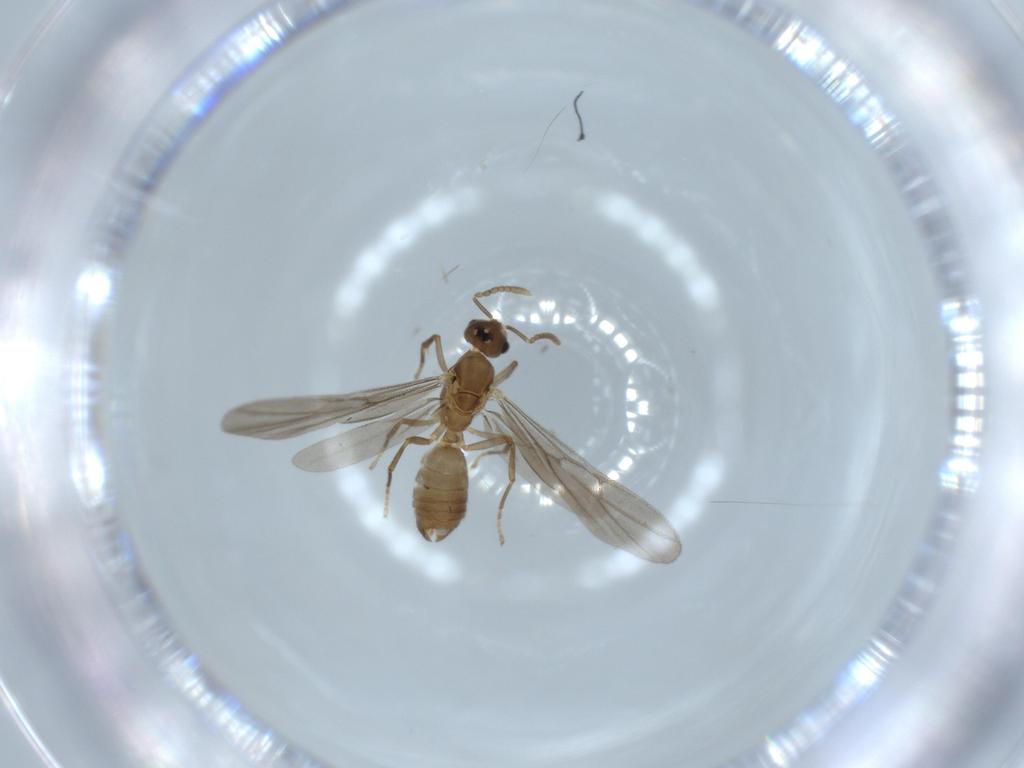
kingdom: Animalia
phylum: Arthropoda
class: Insecta
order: Hymenoptera
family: Formicidae
